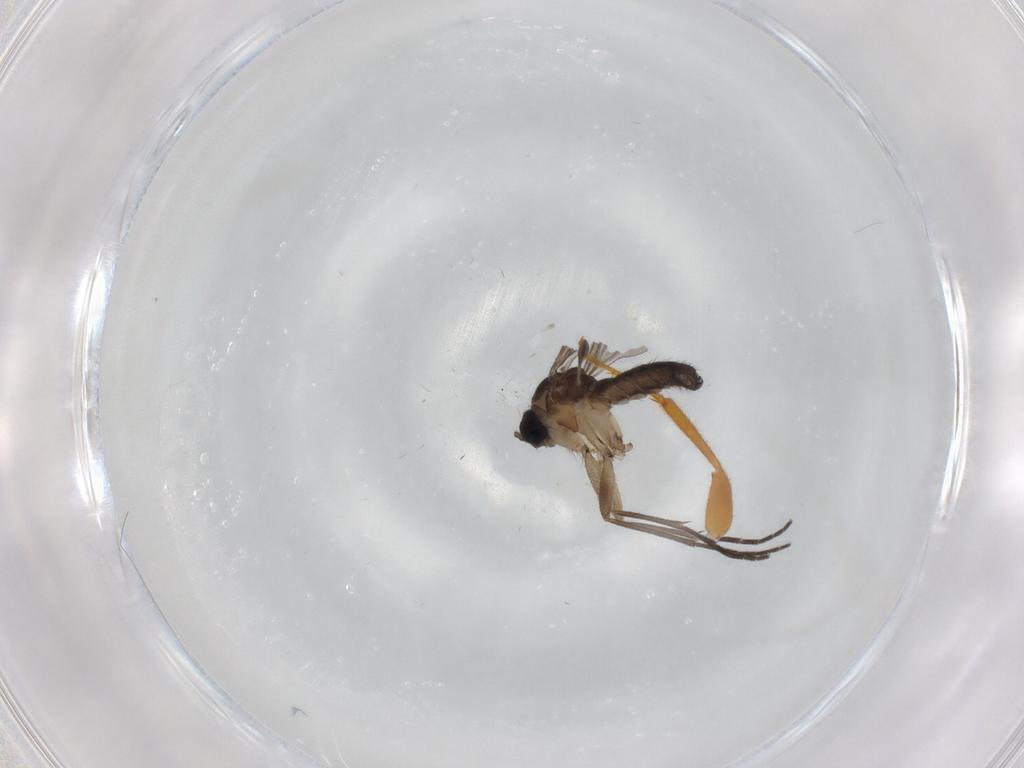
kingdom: Animalia
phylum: Arthropoda
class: Insecta
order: Diptera
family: Sciaridae
